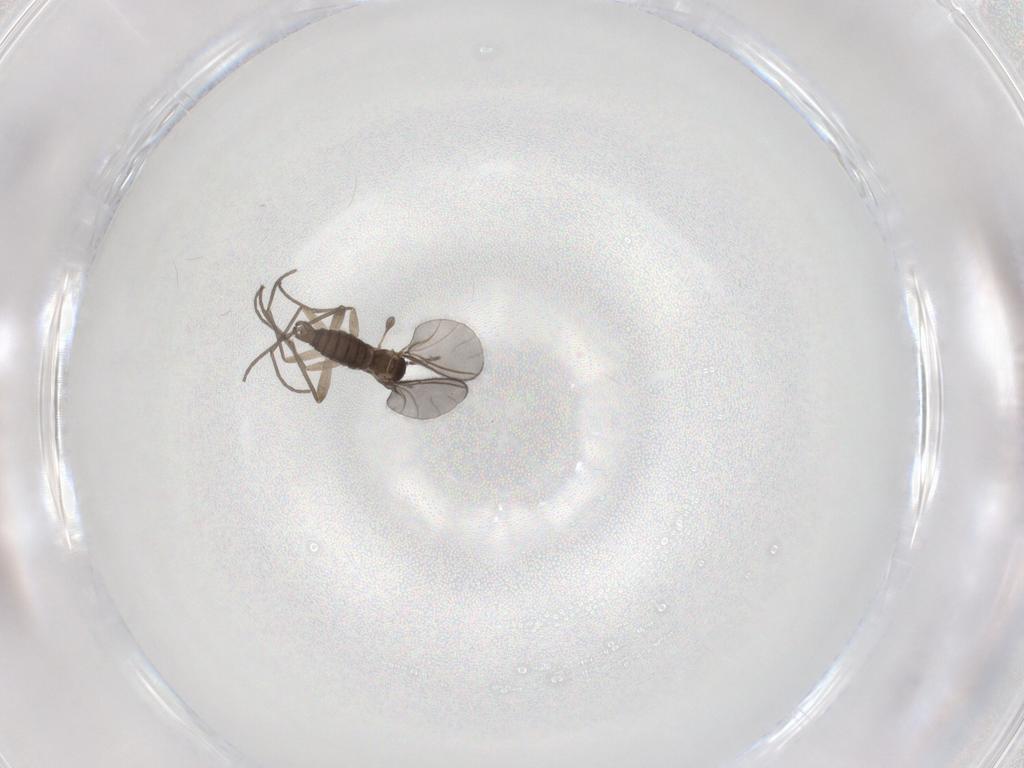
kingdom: Animalia
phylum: Arthropoda
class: Insecta
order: Diptera
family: Sciaridae
